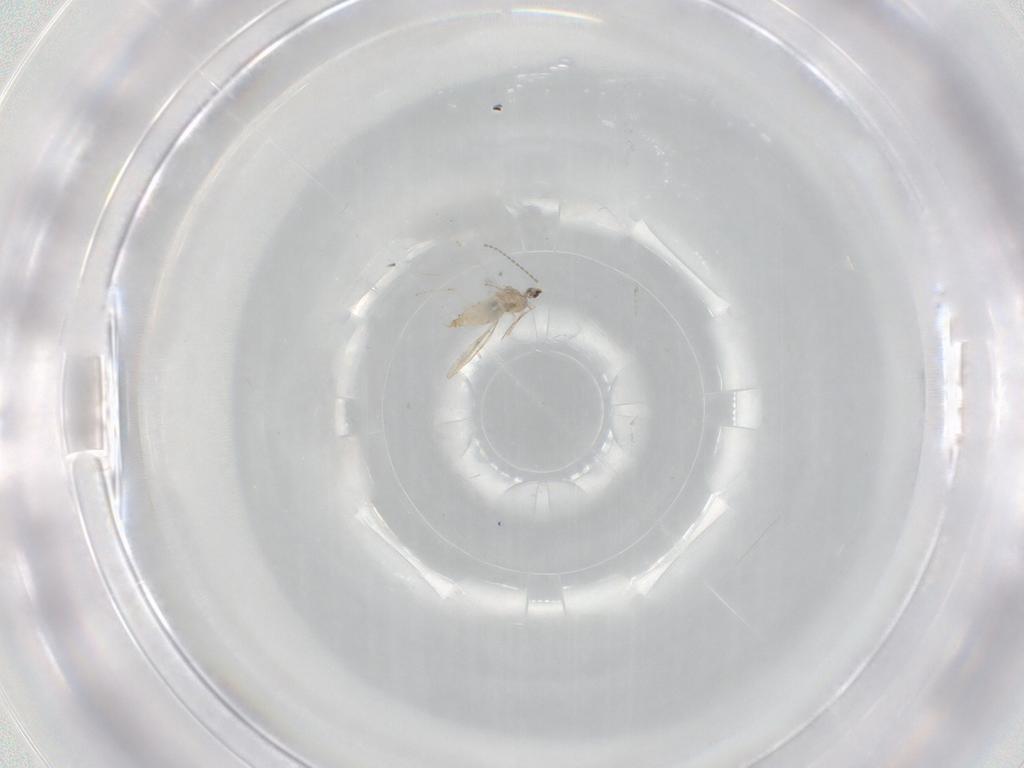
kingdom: Animalia
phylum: Arthropoda
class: Insecta
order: Diptera
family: Cecidomyiidae
